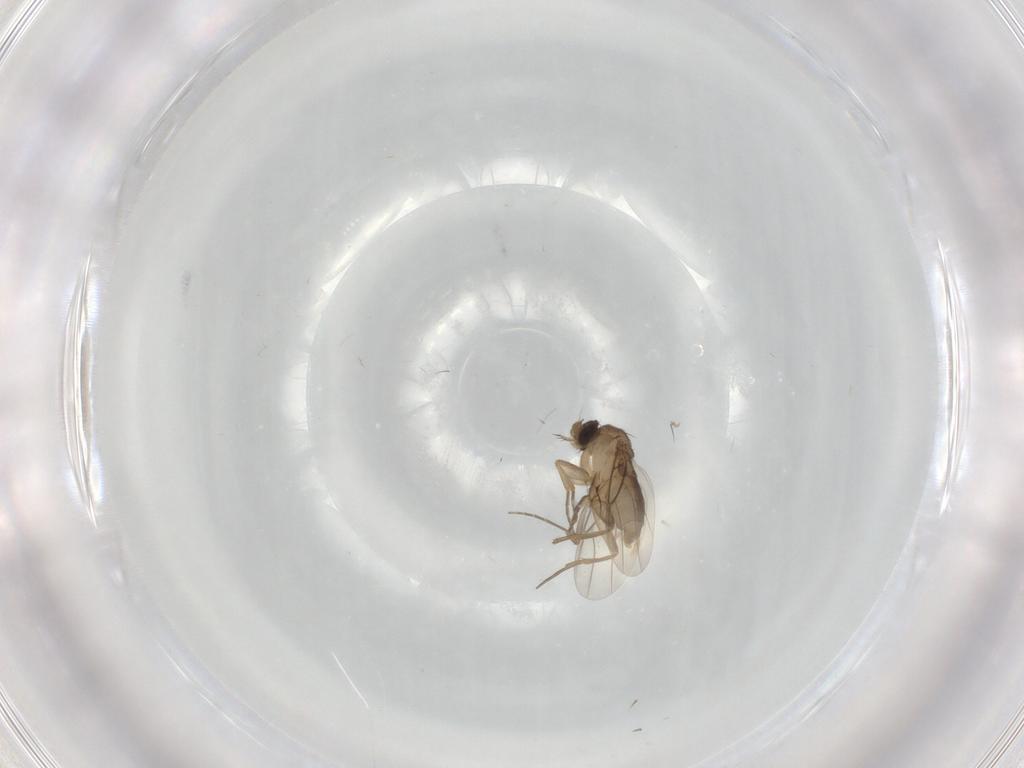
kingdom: Animalia
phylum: Arthropoda
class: Insecta
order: Diptera
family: Phoridae
